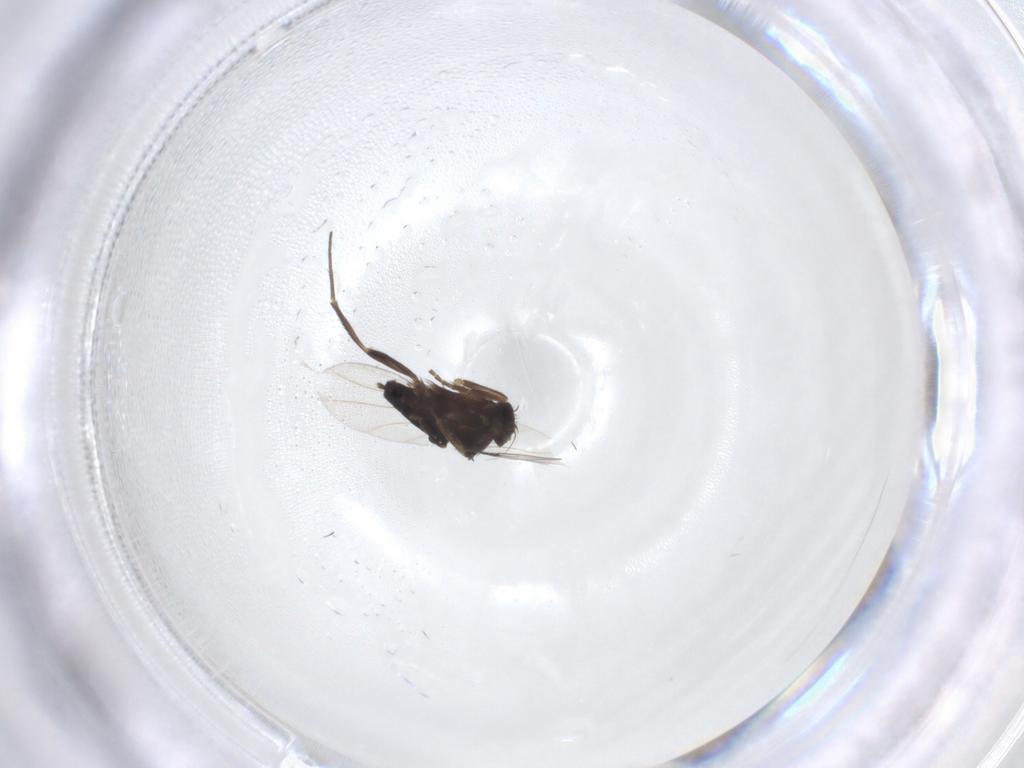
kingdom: Animalia
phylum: Arthropoda
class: Insecta
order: Diptera
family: Phoridae
